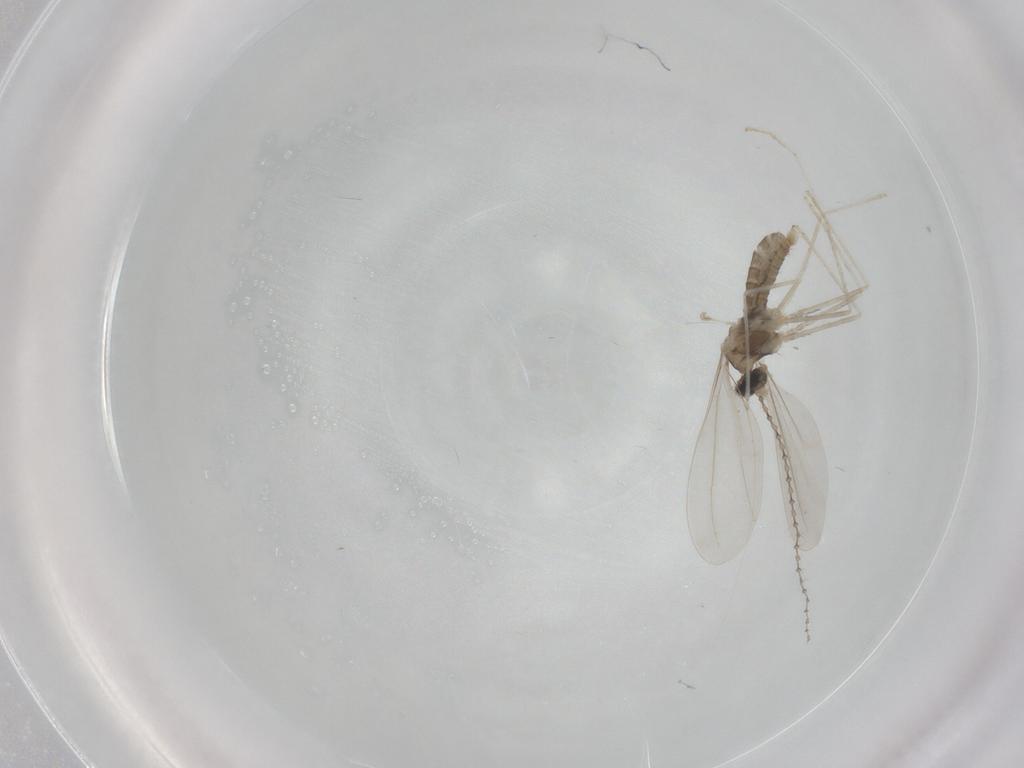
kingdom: Animalia
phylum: Arthropoda
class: Insecta
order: Diptera
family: Cecidomyiidae
